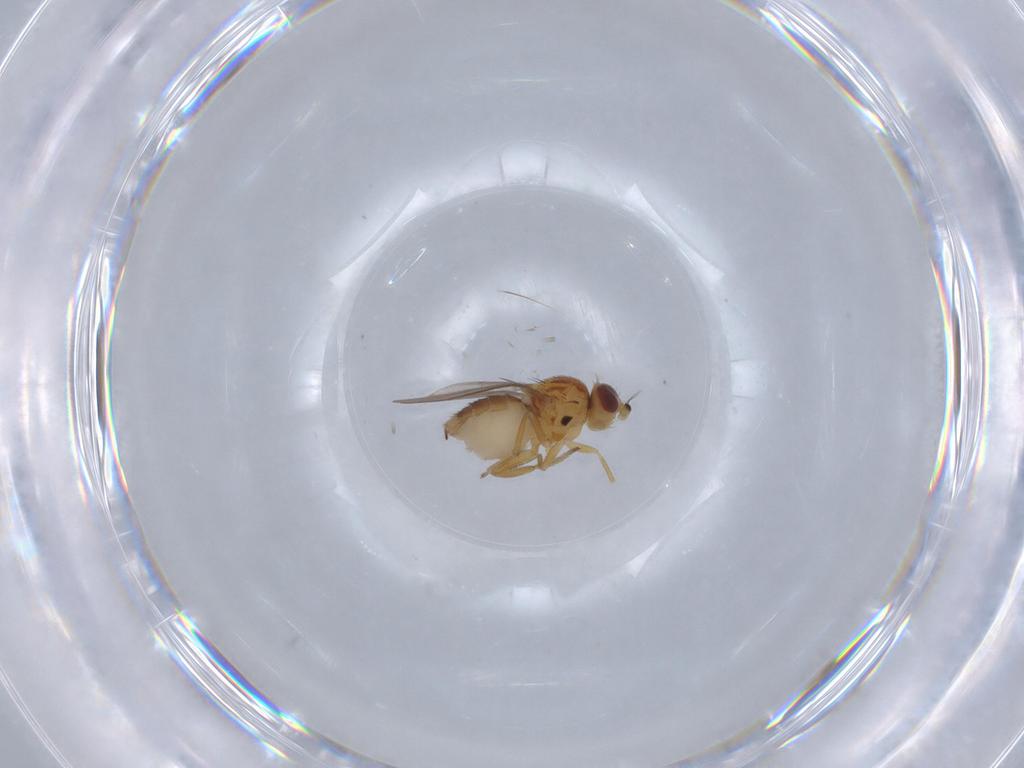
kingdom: Animalia
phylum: Arthropoda
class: Insecta
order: Diptera
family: Chloropidae
